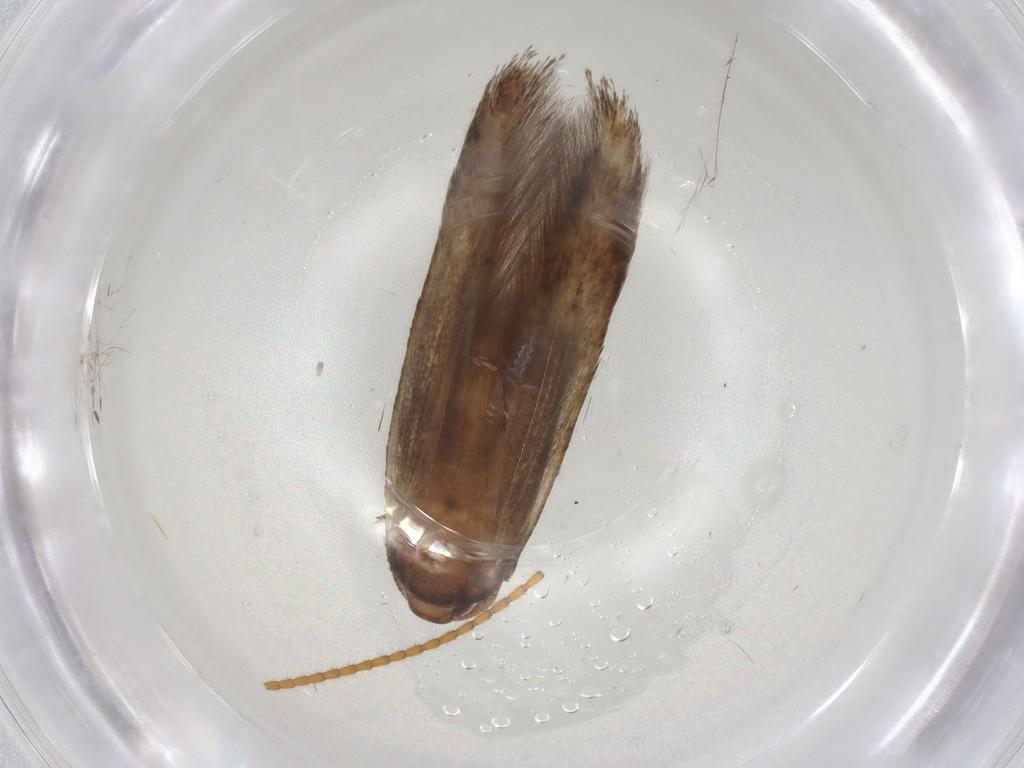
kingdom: Animalia
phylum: Arthropoda
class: Insecta
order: Lepidoptera
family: Cosmopterigidae
